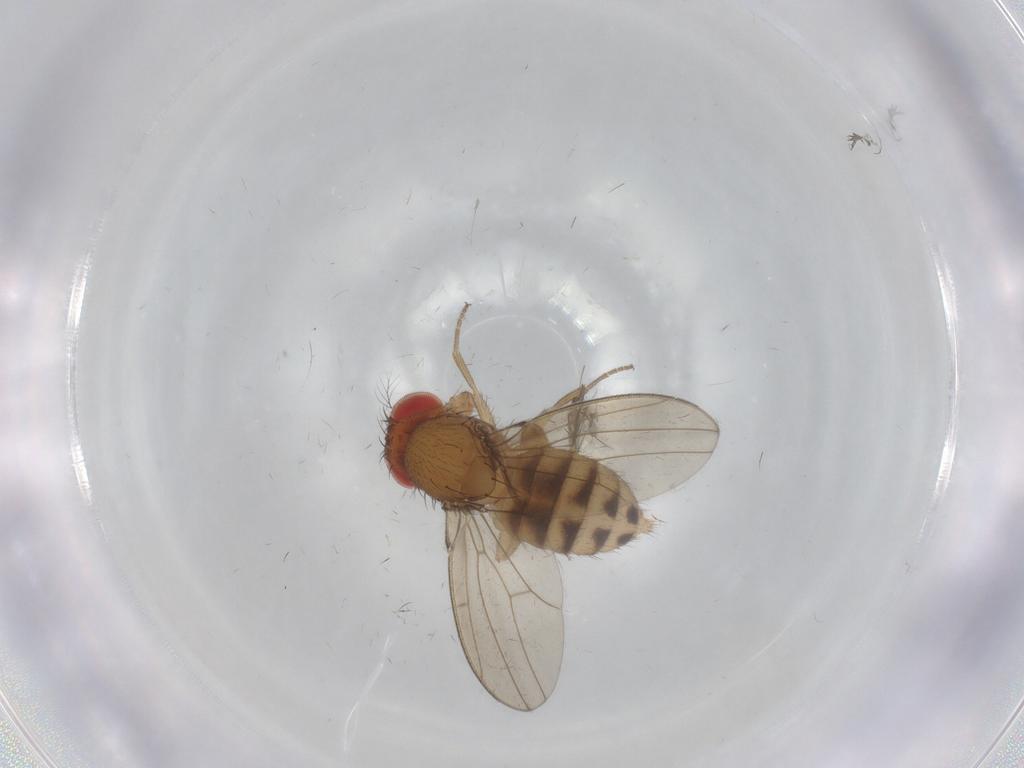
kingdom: Animalia
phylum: Arthropoda
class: Insecta
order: Diptera
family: Drosophilidae
